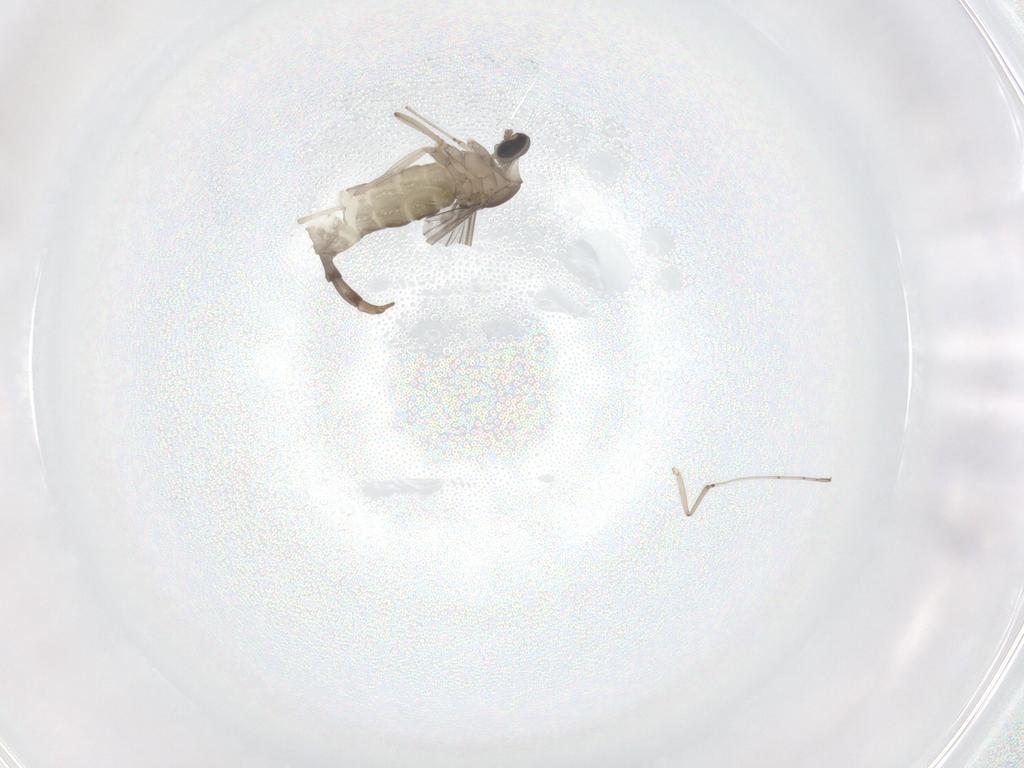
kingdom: Animalia
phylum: Arthropoda
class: Insecta
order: Diptera
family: Cecidomyiidae
